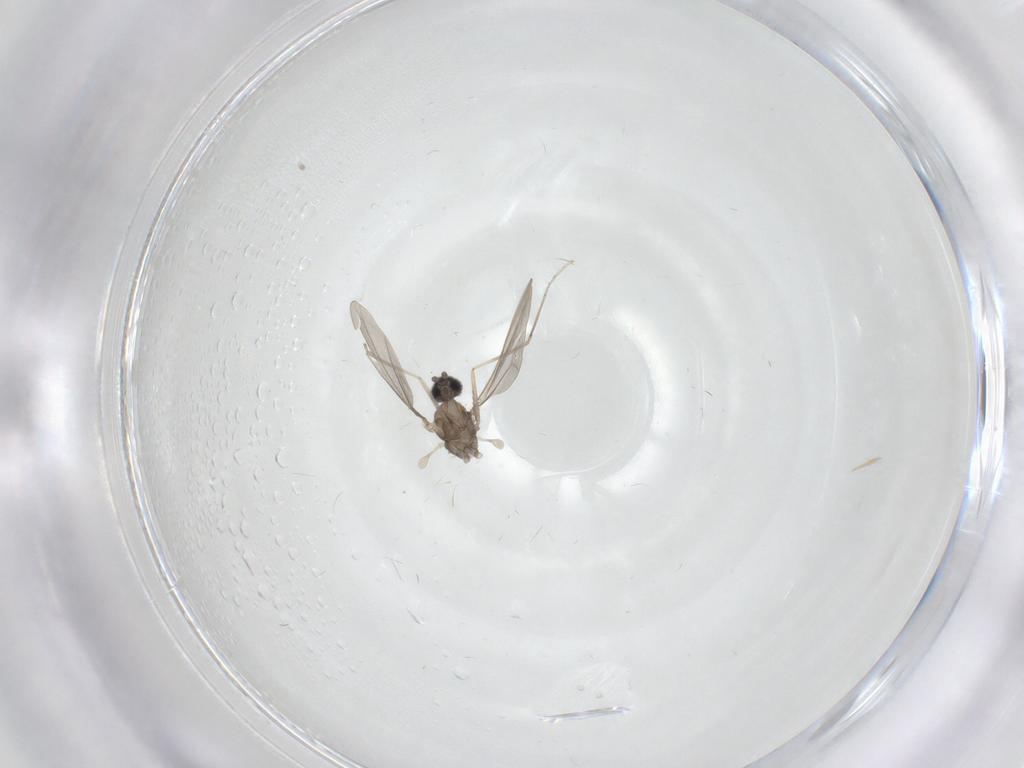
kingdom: Animalia
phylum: Arthropoda
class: Insecta
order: Diptera
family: Chironomidae
